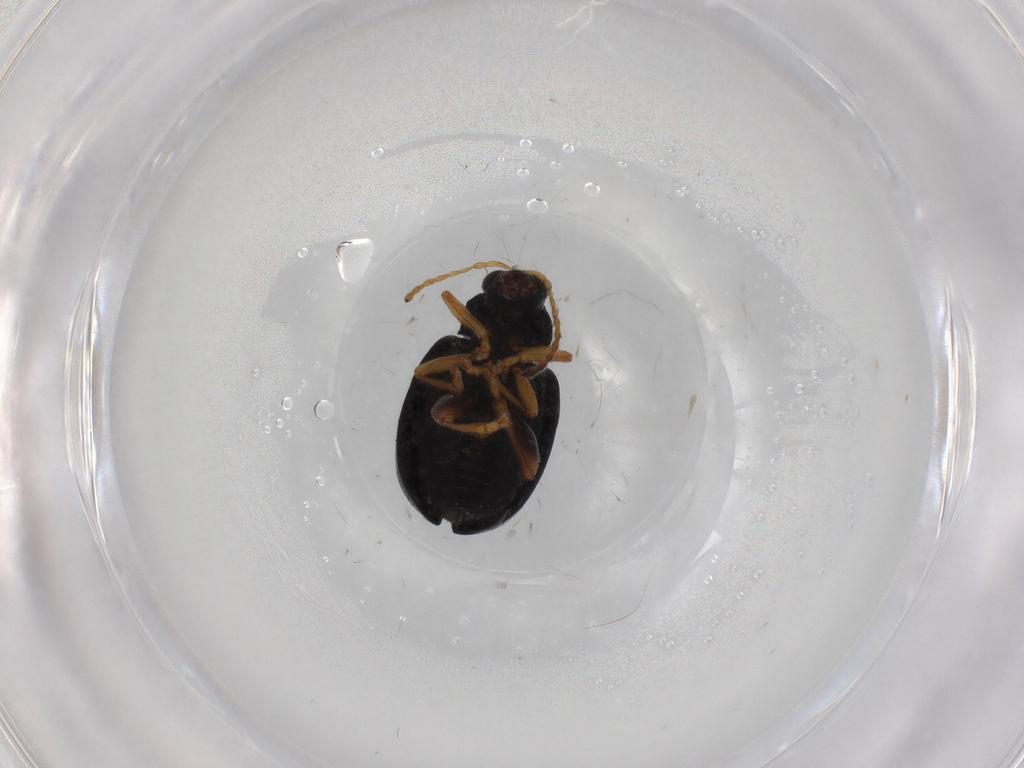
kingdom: Animalia
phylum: Arthropoda
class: Insecta
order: Coleoptera
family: Chrysomelidae
